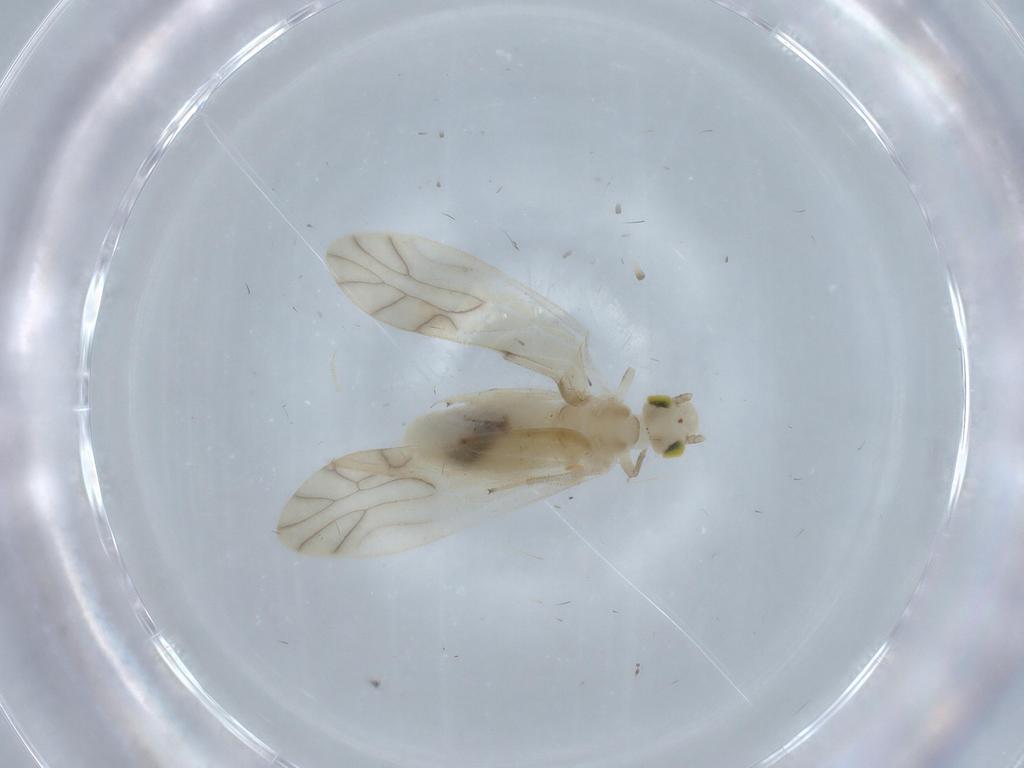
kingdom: Animalia
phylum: Arthropoda
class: Insecta
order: Psocodea
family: Caeciliusidae
